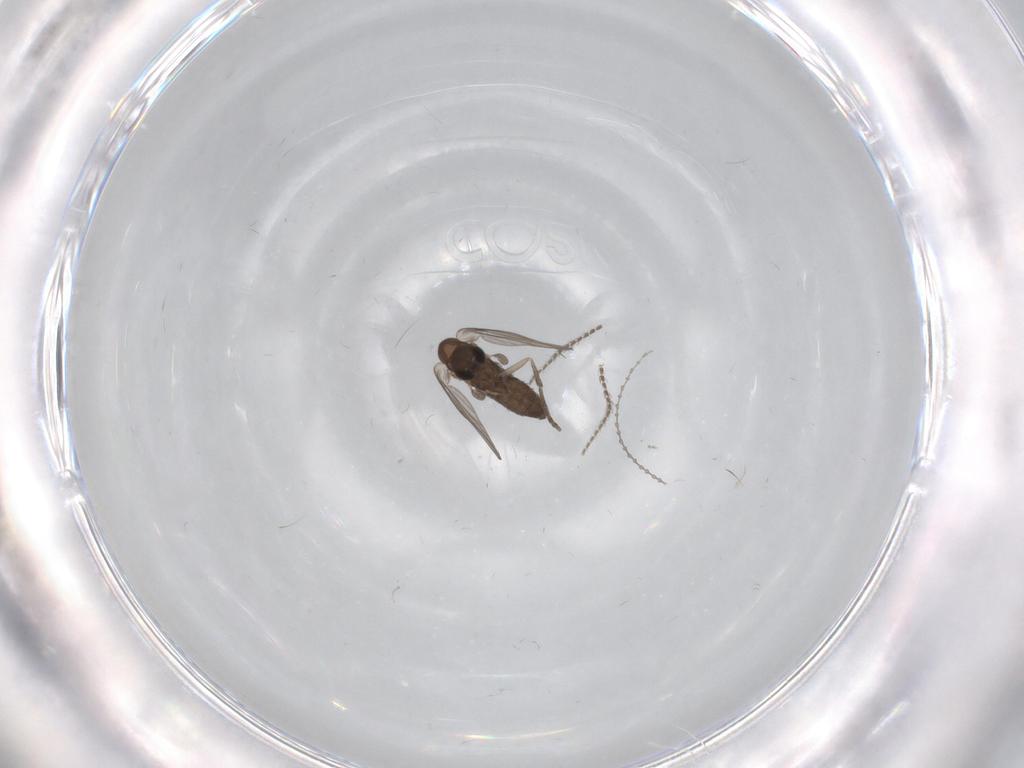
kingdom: Animalia
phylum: Arthropoda
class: Insecta
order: Diptera
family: Cecidomyiidae
